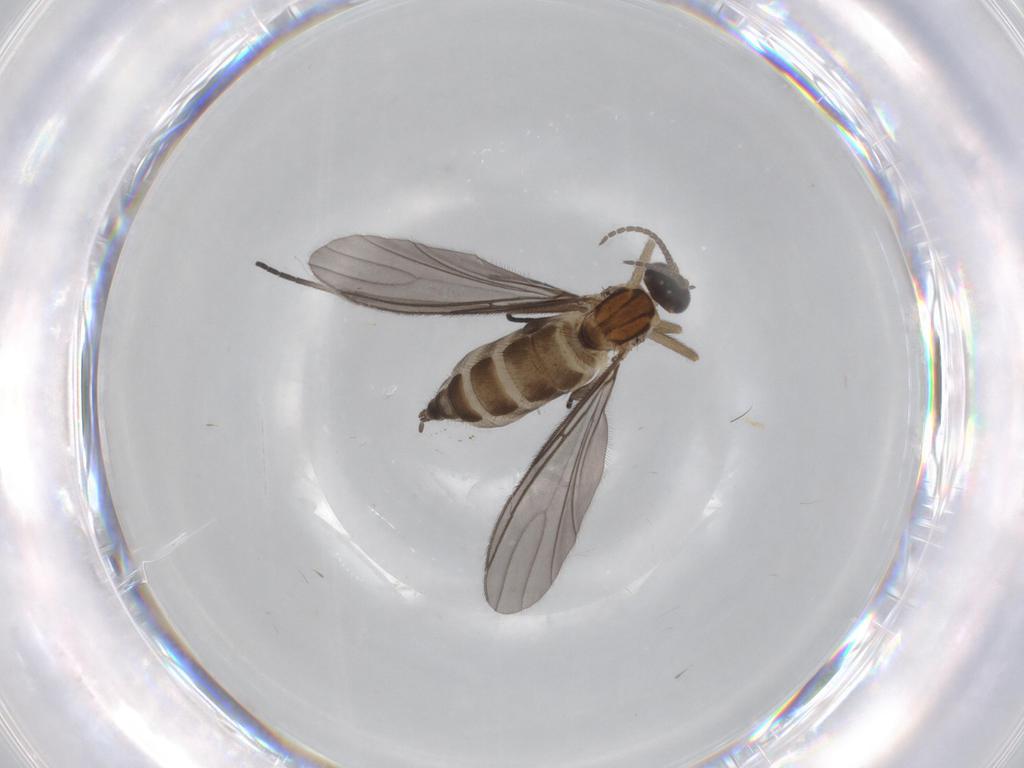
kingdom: Animalia
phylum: Arthropoda
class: Insecta
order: Diptera
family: Sciaridae
